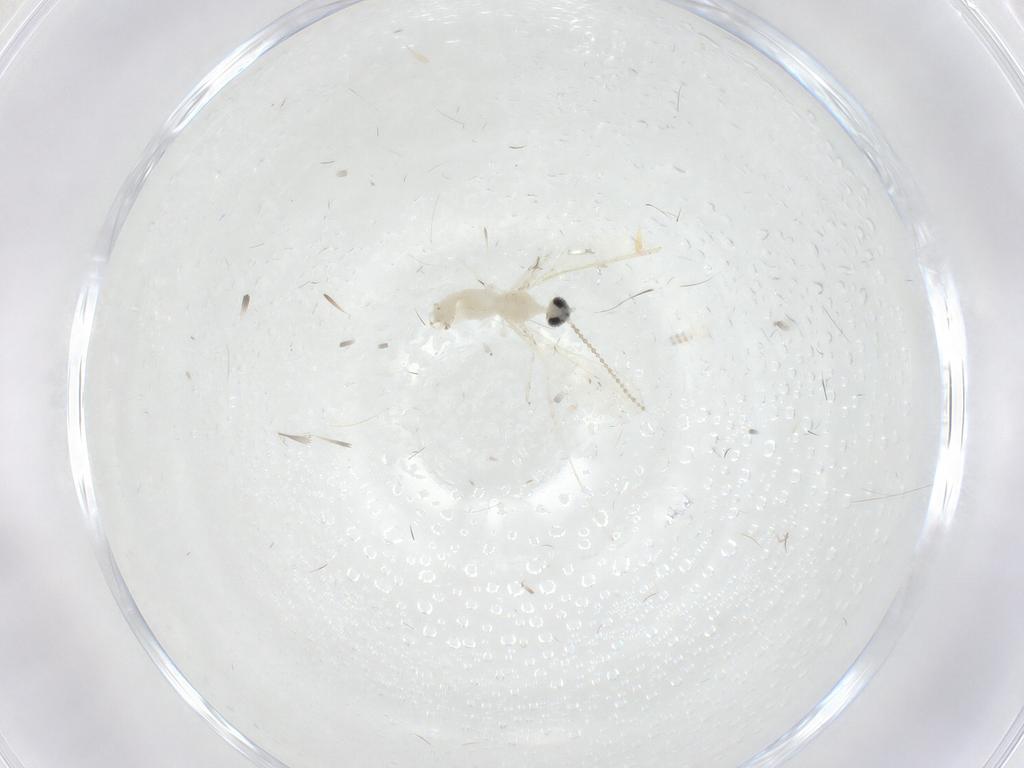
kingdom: Animalia
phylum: Arthropoda
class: Insecta
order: Diptera
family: Cecidomyiidae
